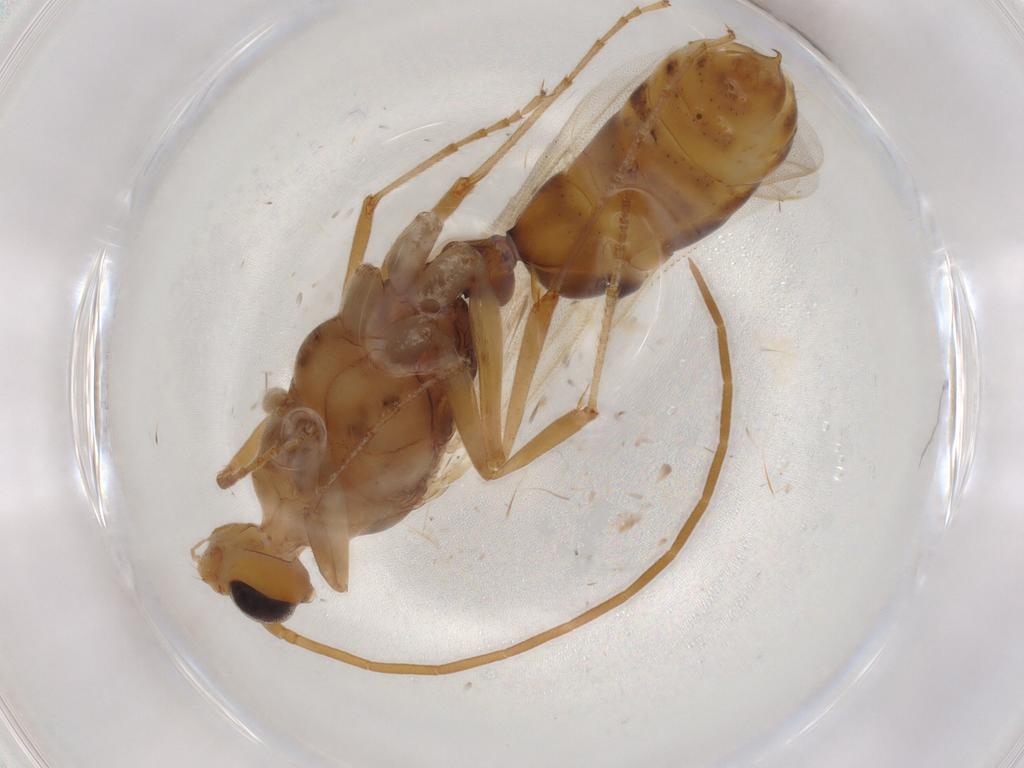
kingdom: Animalia
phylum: Arthropoda
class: Insecta
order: Hymenoptera
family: Formicidae
